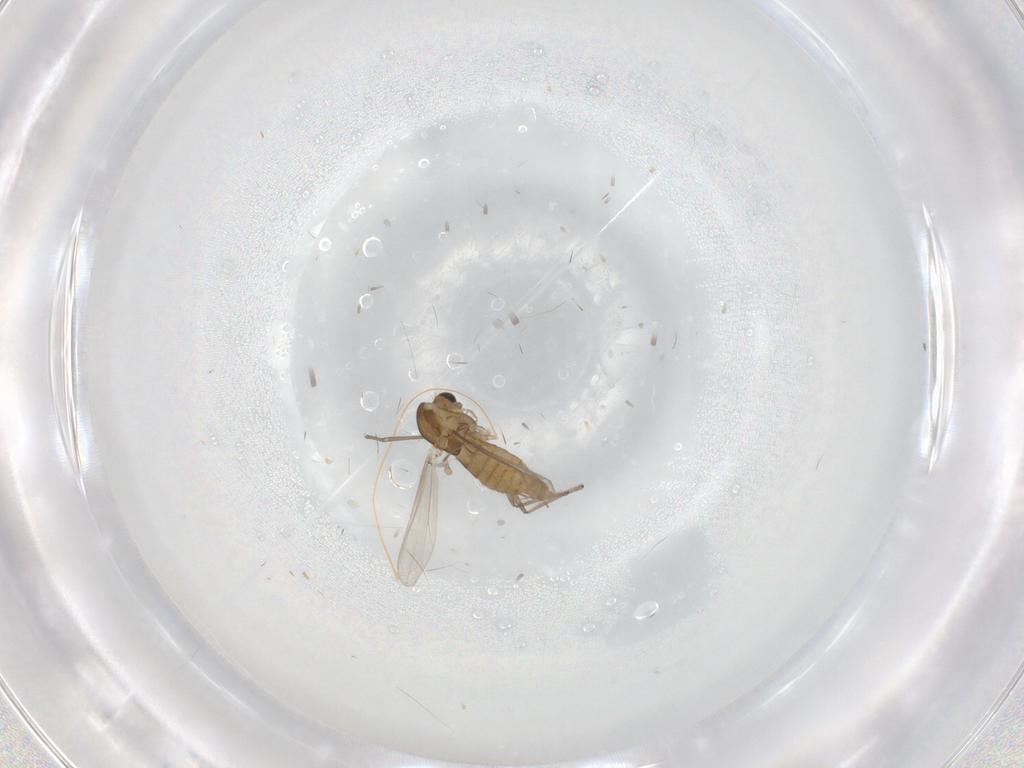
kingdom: Animalia
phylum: Arthropoda
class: Insecta
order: Diptera
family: Chironomidae
